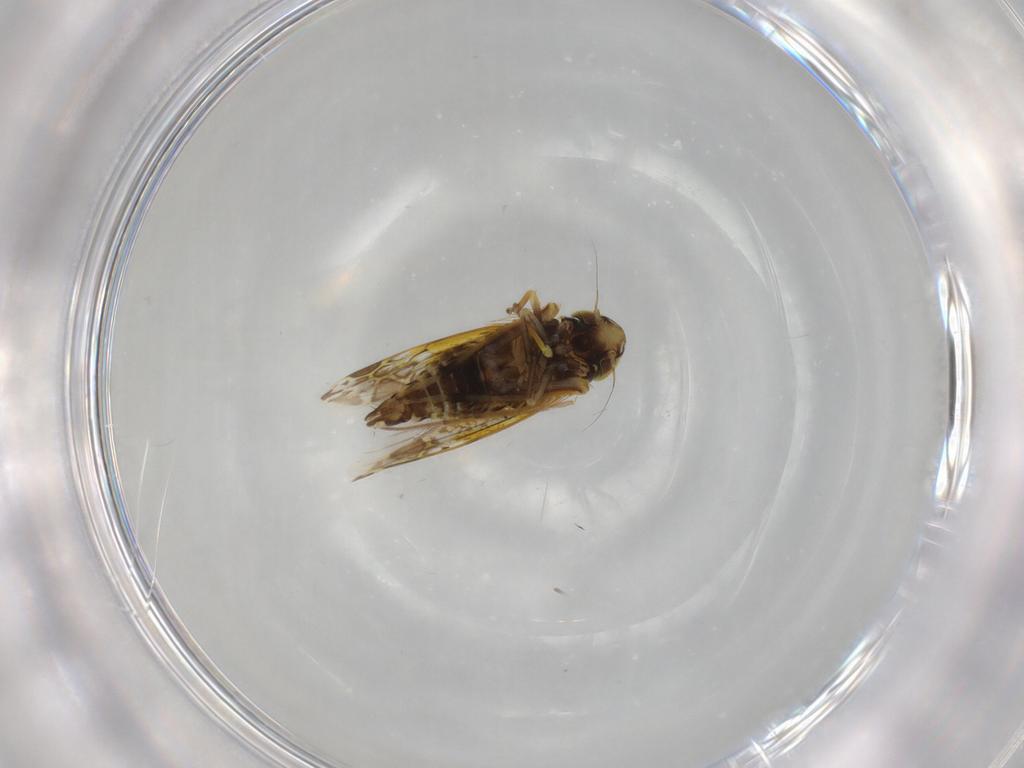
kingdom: Animalia
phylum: Arthropoda
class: Insecta
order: Hemiptera
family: Cicadellidae
